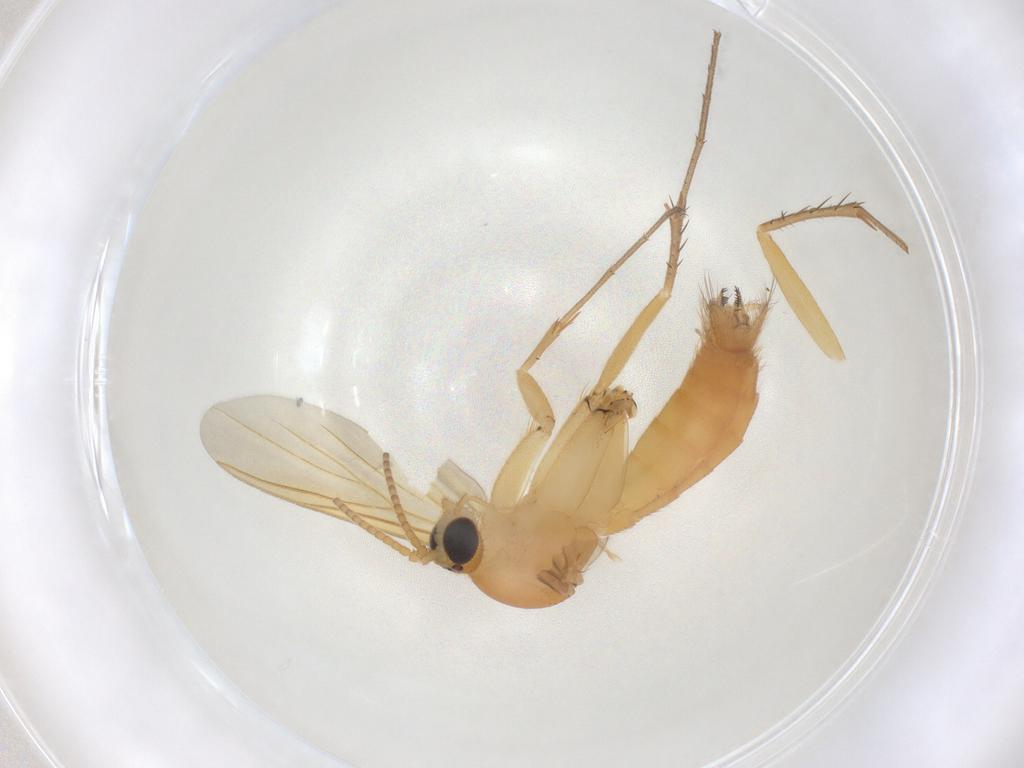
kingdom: Animalia
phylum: Arthropoda
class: Insecta
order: Diptera
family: Mycetophilidae
